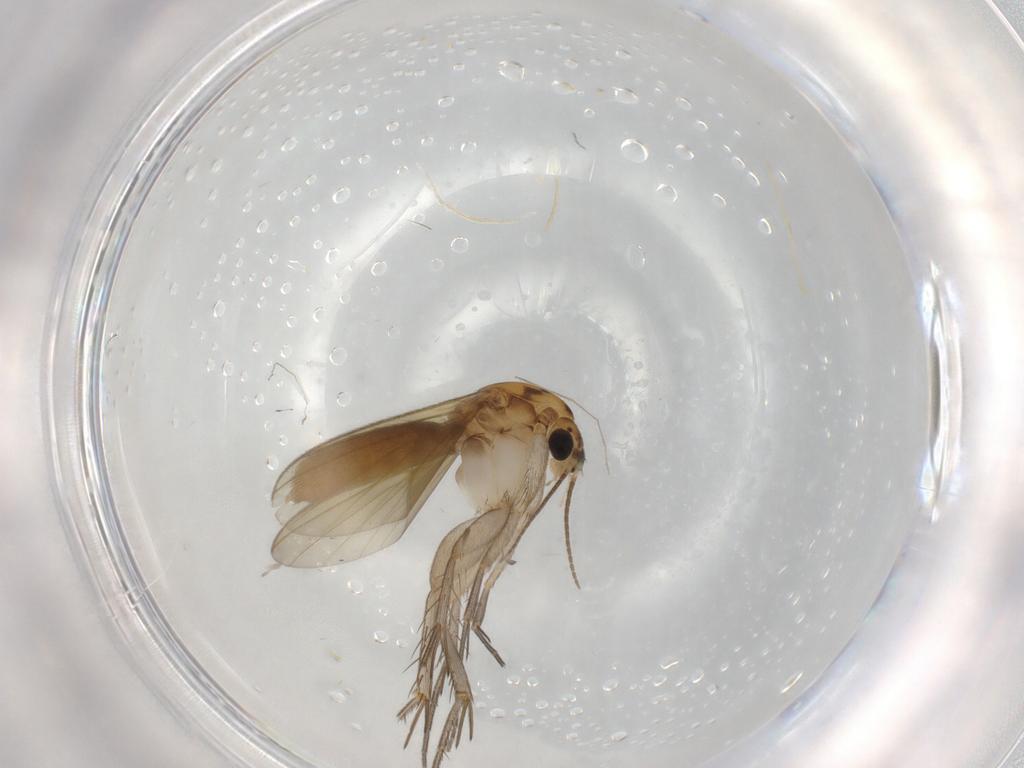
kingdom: Animalia
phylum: Arthropoda
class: Insecta
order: Diptera
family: Mycetophilidae
